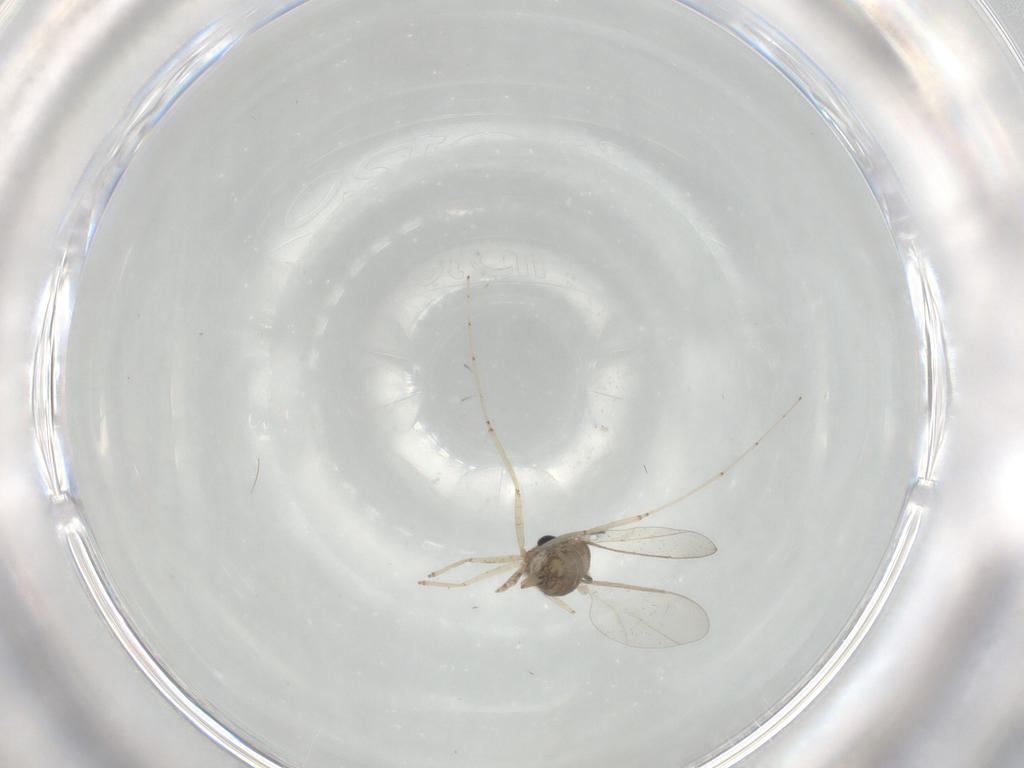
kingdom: Animalia
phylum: Arthropoda
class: Insecta
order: Diptera
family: Cecidomyiidae
